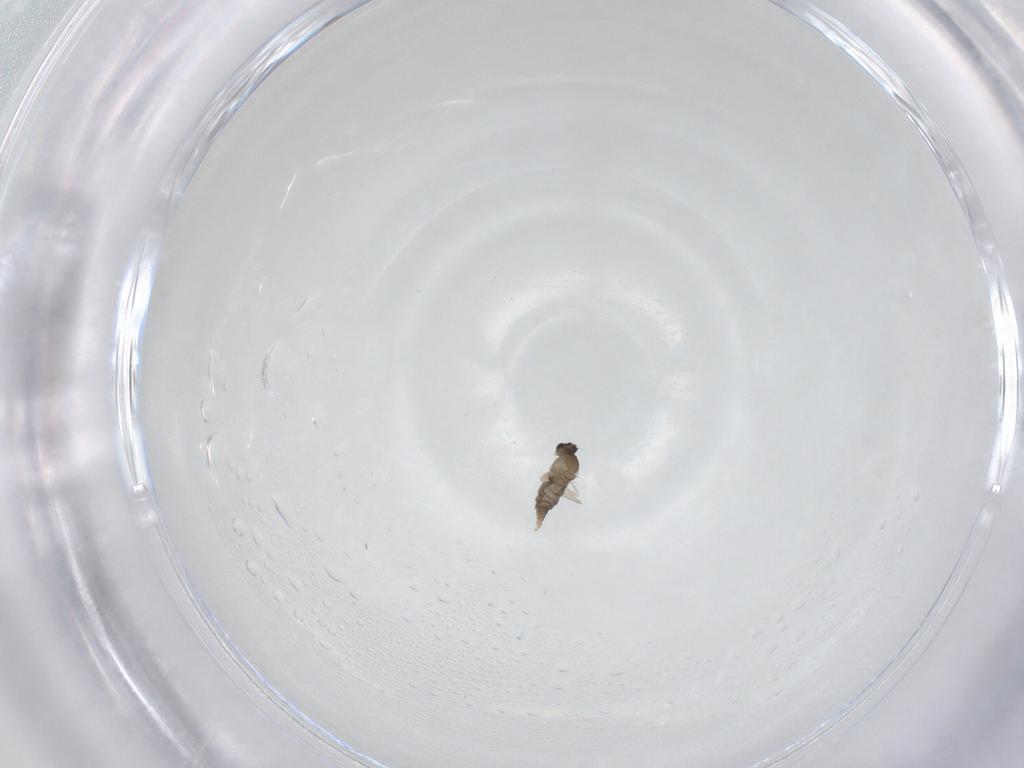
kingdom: Animalia
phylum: Arthropoda
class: Insecta
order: Diptera
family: Cecidomyiidae
